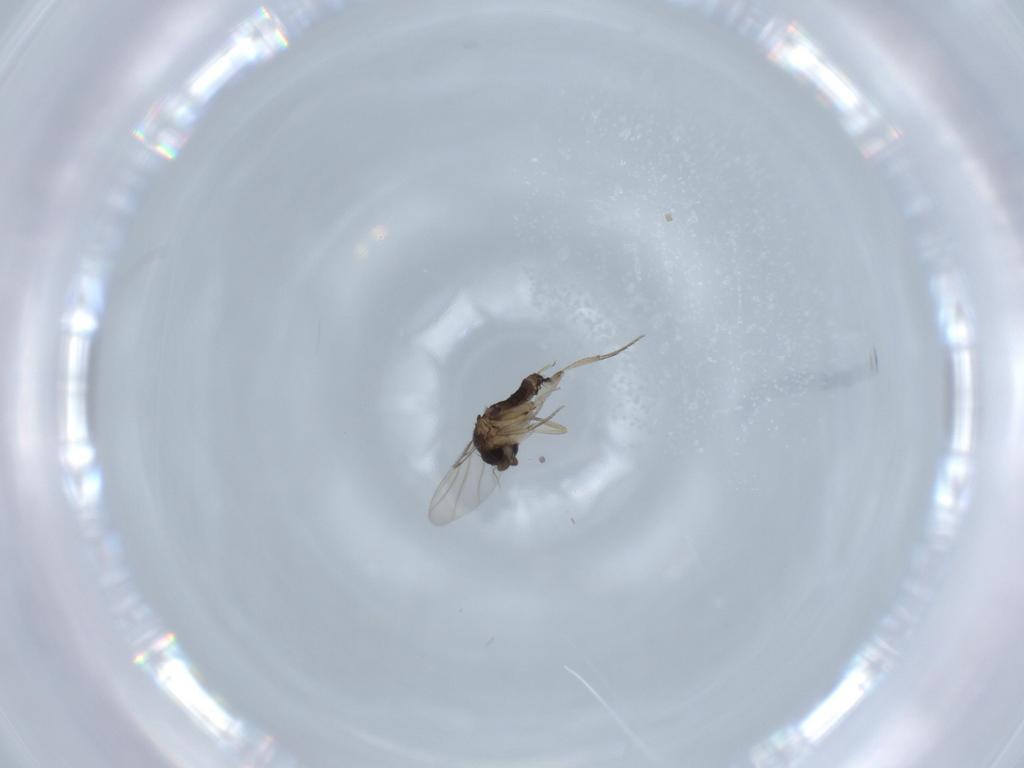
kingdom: Animalia
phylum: Arthropoda
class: Insecta
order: Diptera
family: Phoridae
